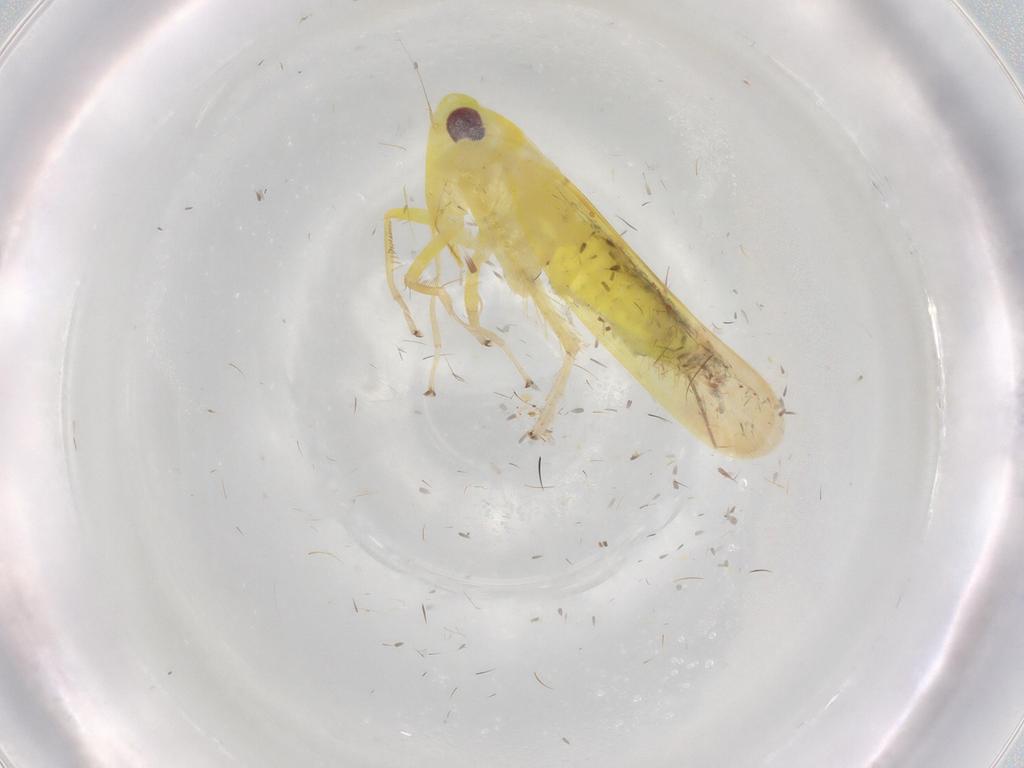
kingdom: Animalia
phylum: Arthropoda
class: Insecta
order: Hemiptera
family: Cicadellidae
